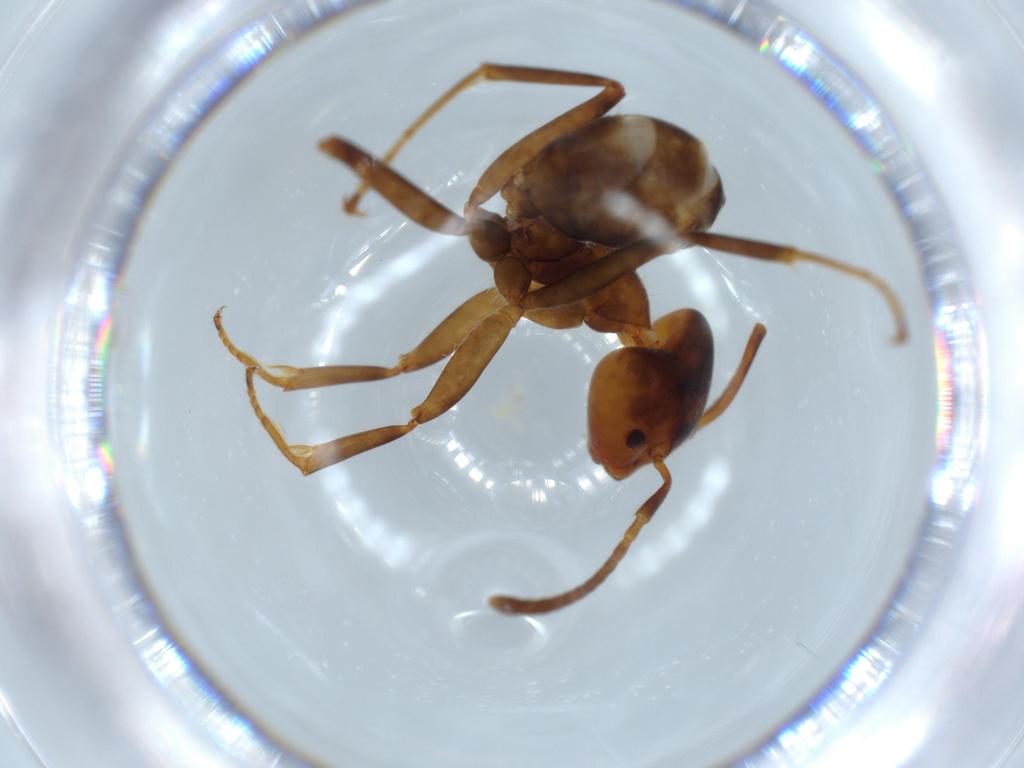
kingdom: Animalia
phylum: Arthropoda
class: Insecta
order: Hymenoptera
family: Formicidae
